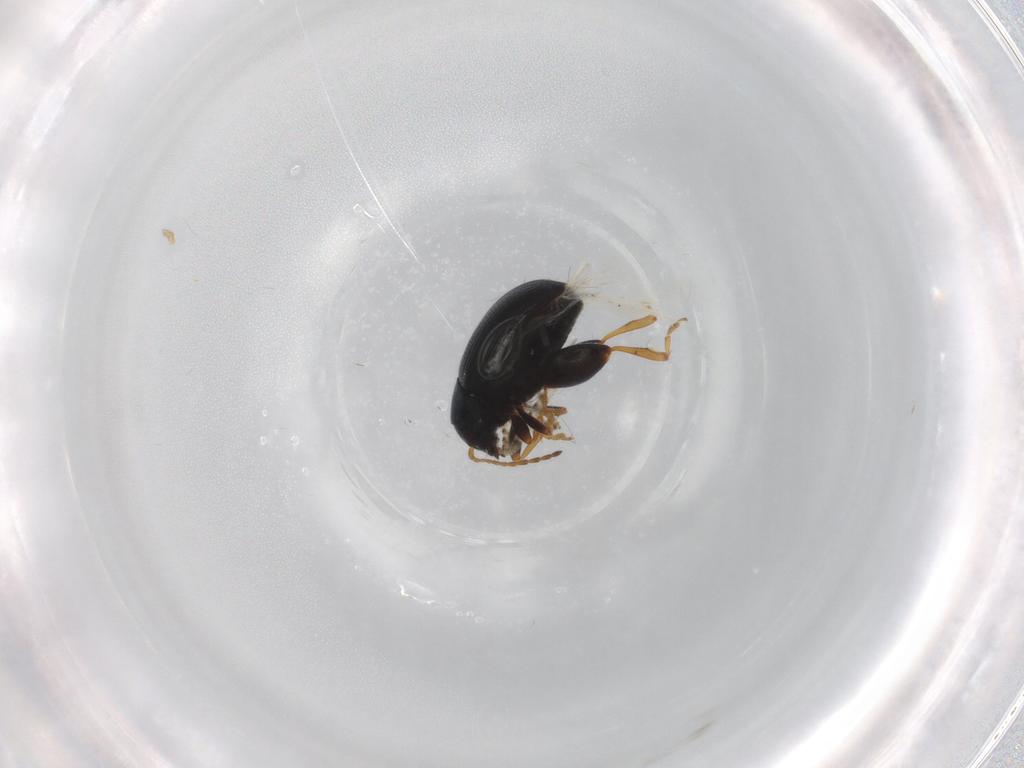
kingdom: Animalia
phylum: Arthropoda
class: Insecta
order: Coleoptera
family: Chrysomelidae
